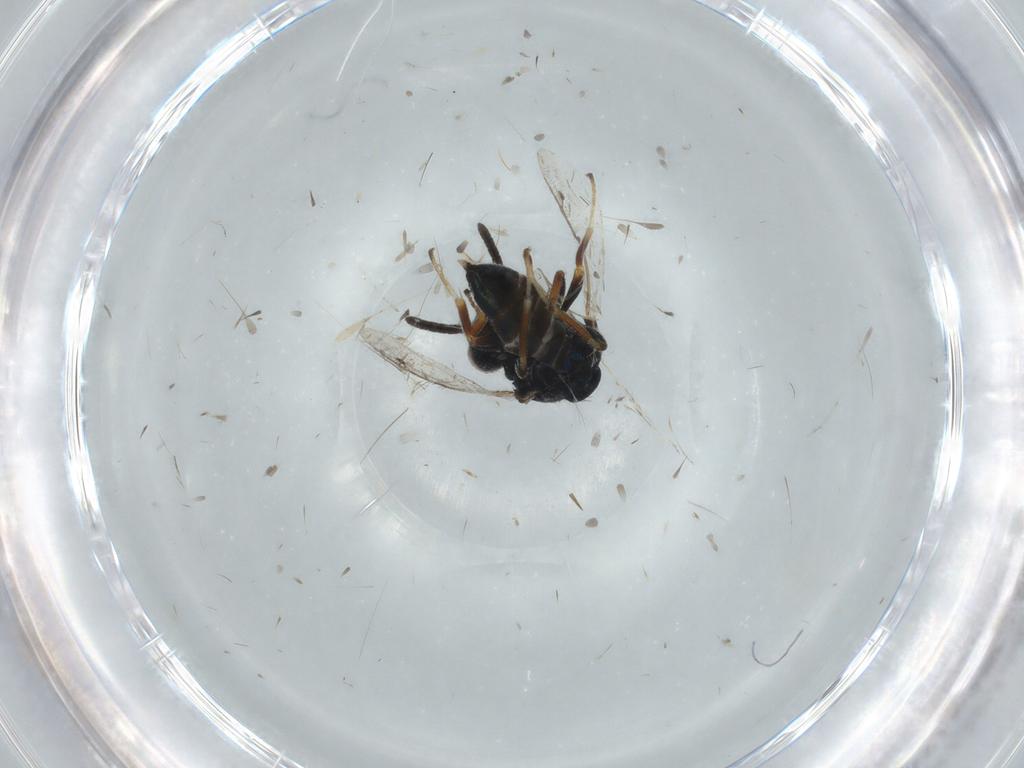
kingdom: Animalia
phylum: Arthropoda
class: Insecta
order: Hymenoptera
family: Pteromalidae
